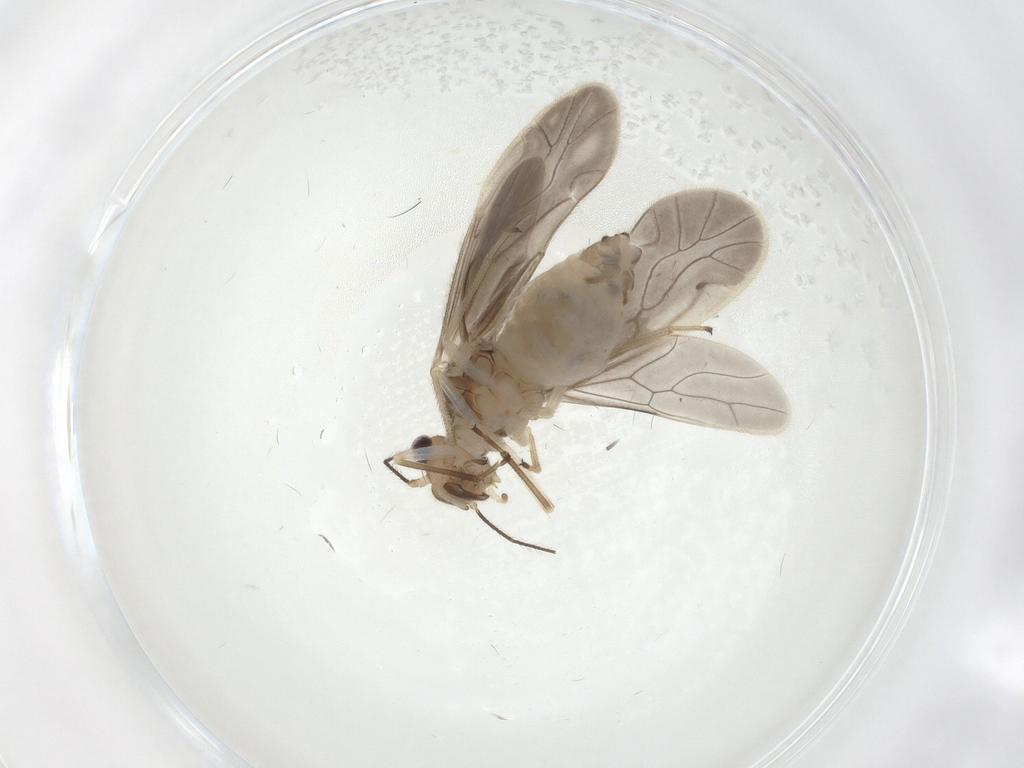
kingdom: Animalia
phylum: Arthropoda
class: Insecta
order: Psocodea
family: Caeciliusidae
